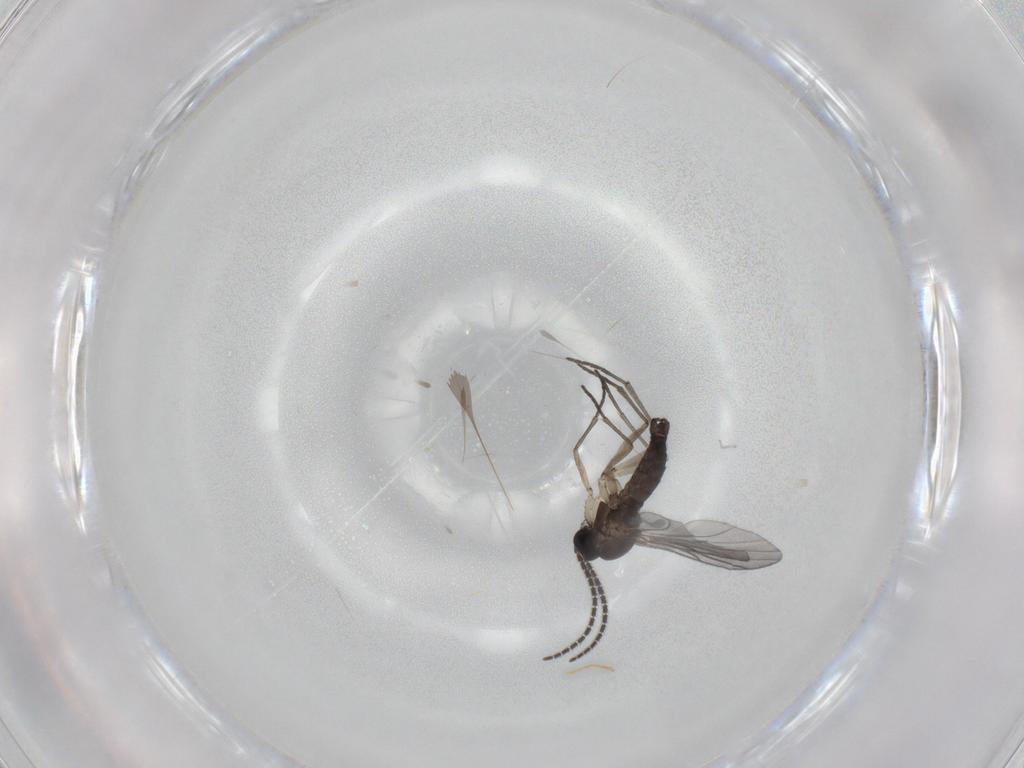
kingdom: Animalia
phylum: Arthropoda
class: Insecta
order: Diptera
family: Sciaridae
